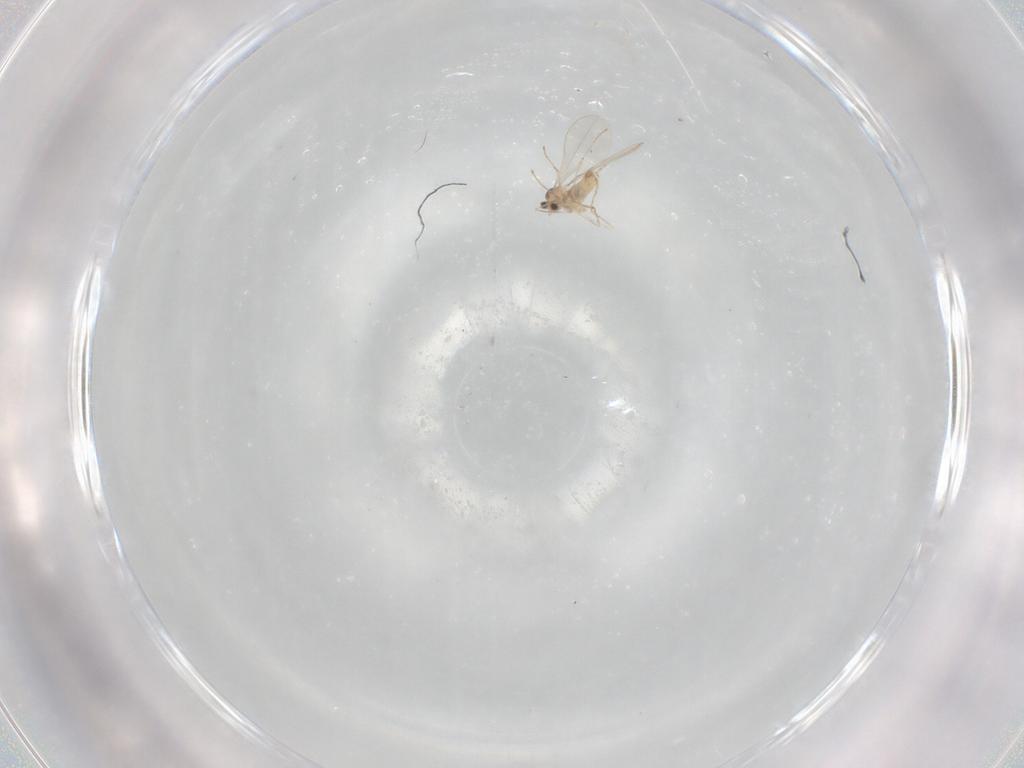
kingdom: Animalia
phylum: Arthropoda
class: Insecta
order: Diptera
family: Cecidomyiidae
